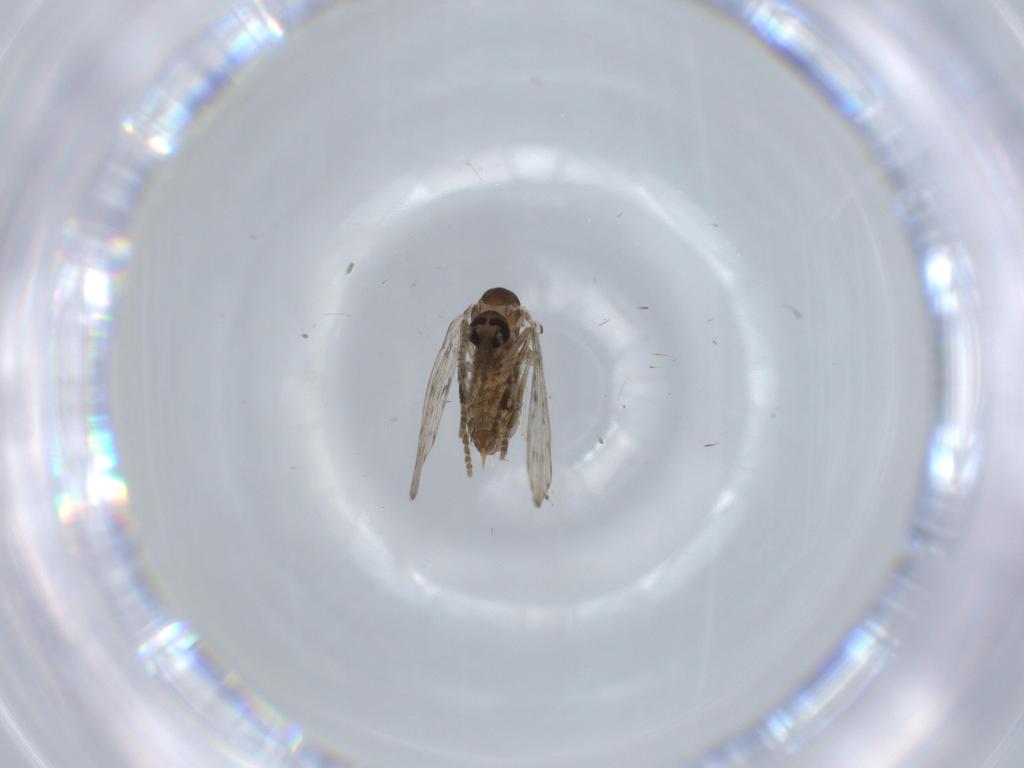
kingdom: Animalia
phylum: Arthropoda
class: Insecta
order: Diptera
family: Psychodidae
